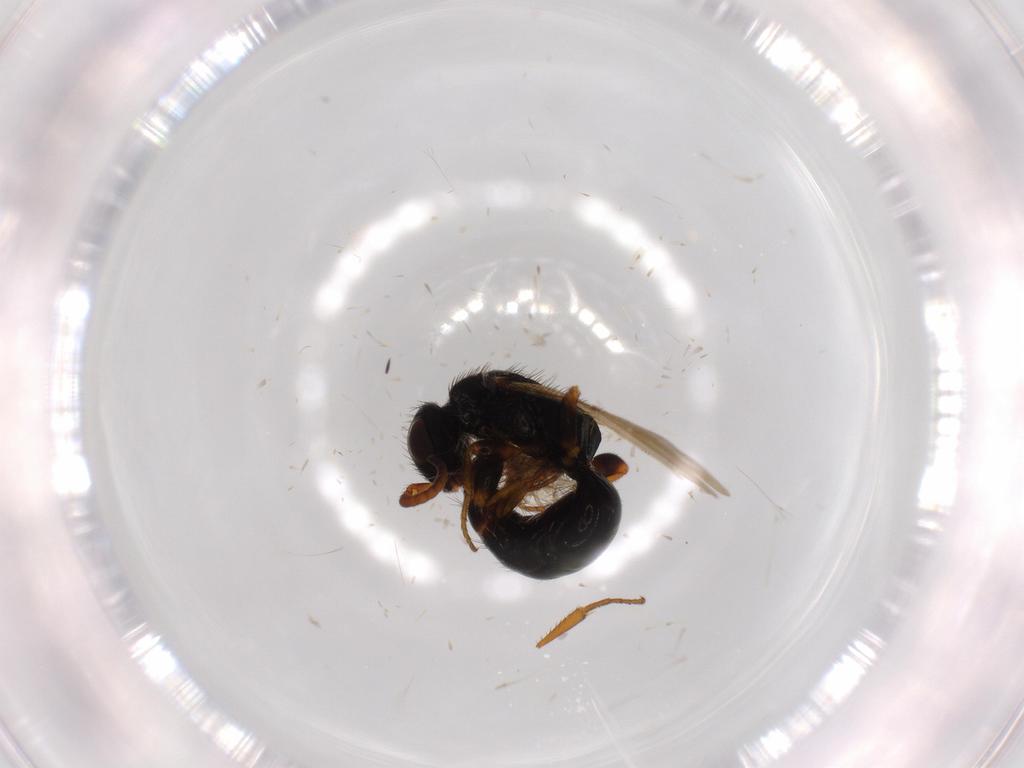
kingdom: Animalia
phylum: Arthropoda
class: Insecta
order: Hymenoptera
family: Bethylidae
